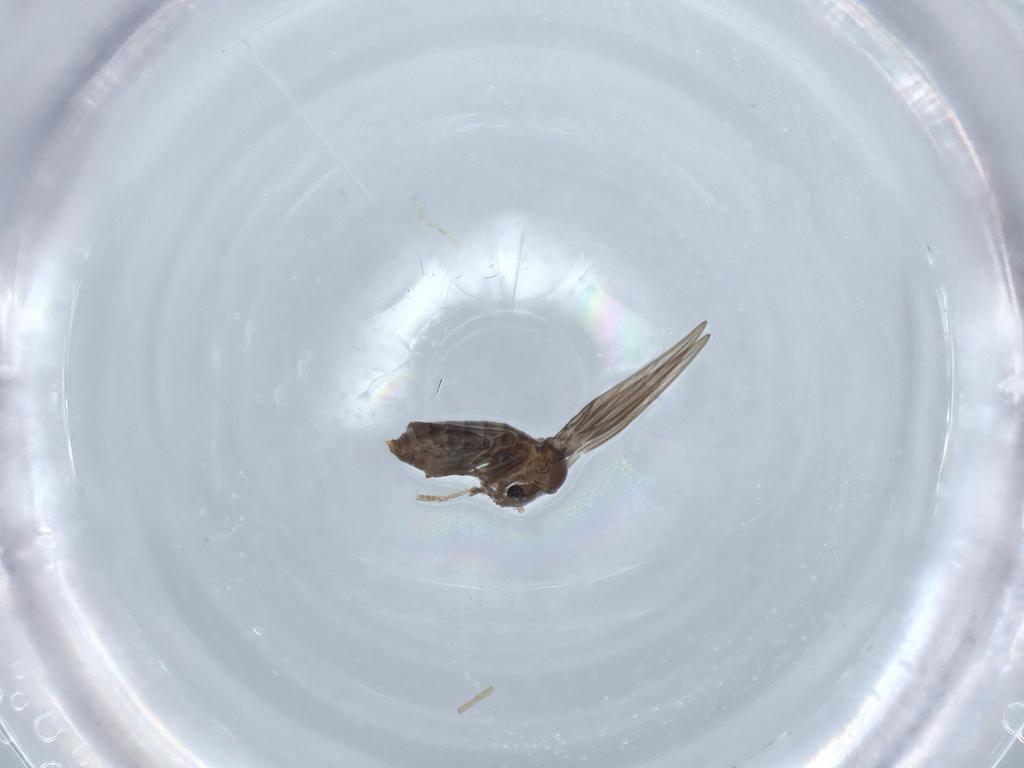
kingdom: Animalia
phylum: Arthropoda
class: Insecta
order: Diptera
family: Psychodidae
